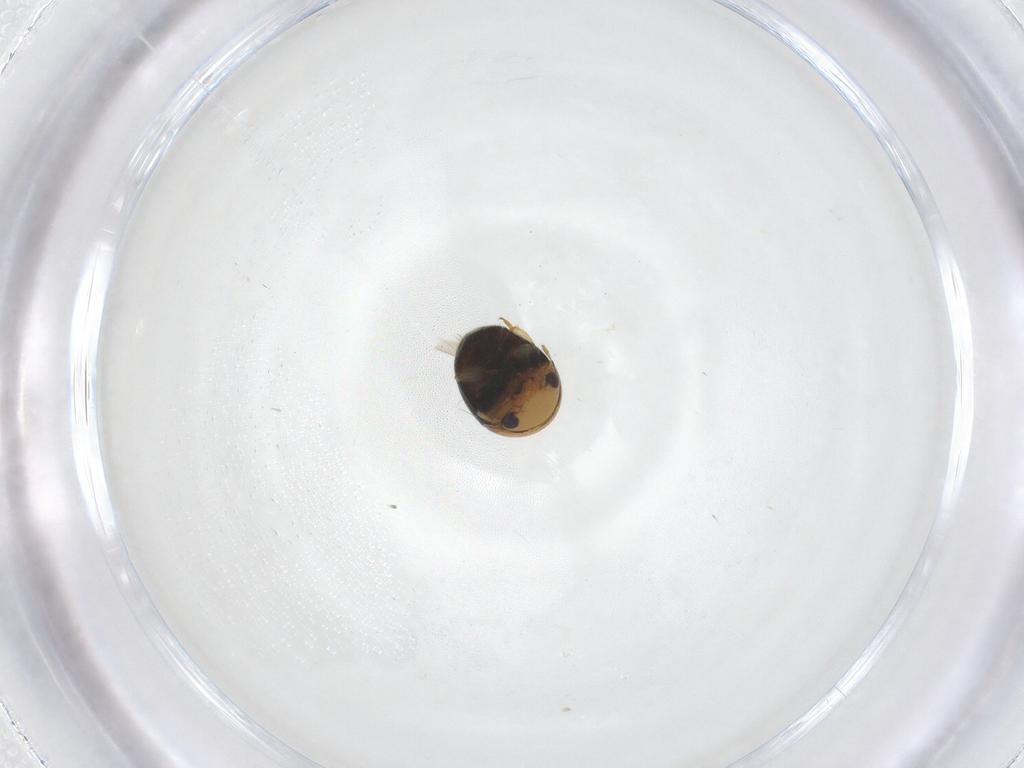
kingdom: Animalia
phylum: Arthropoda
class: Insecta
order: Coleoptera
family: Cybocephalidae
